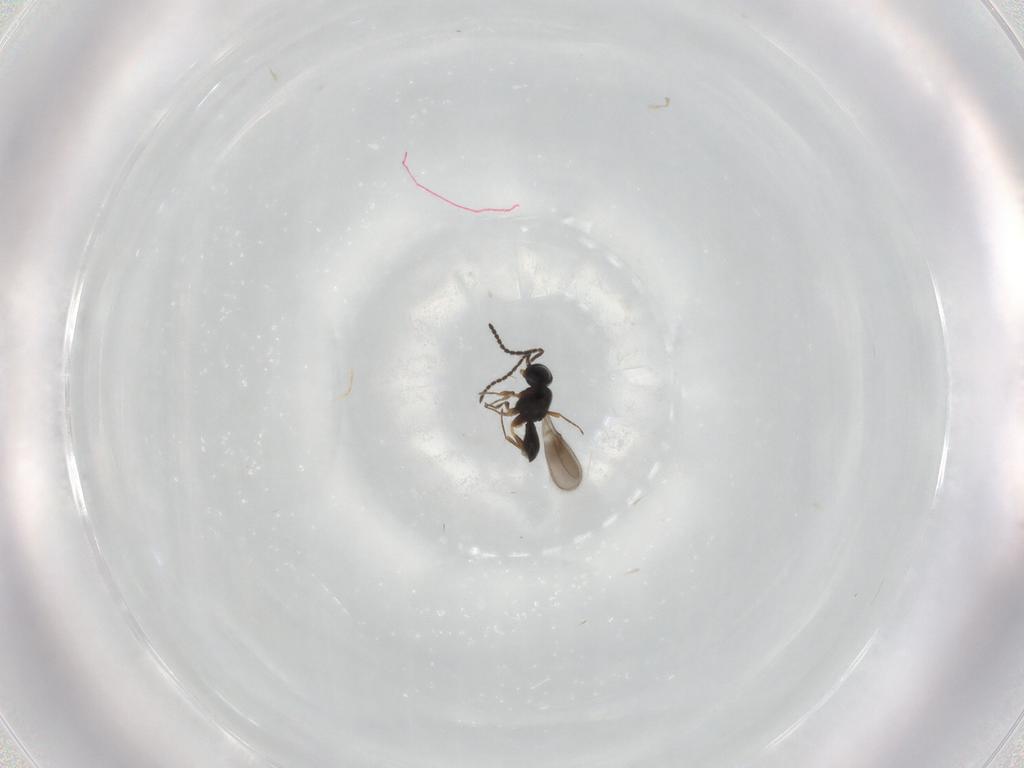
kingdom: Animalia
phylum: Arthropoda
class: Insecta
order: Hymenoptera
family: Scelionidae
